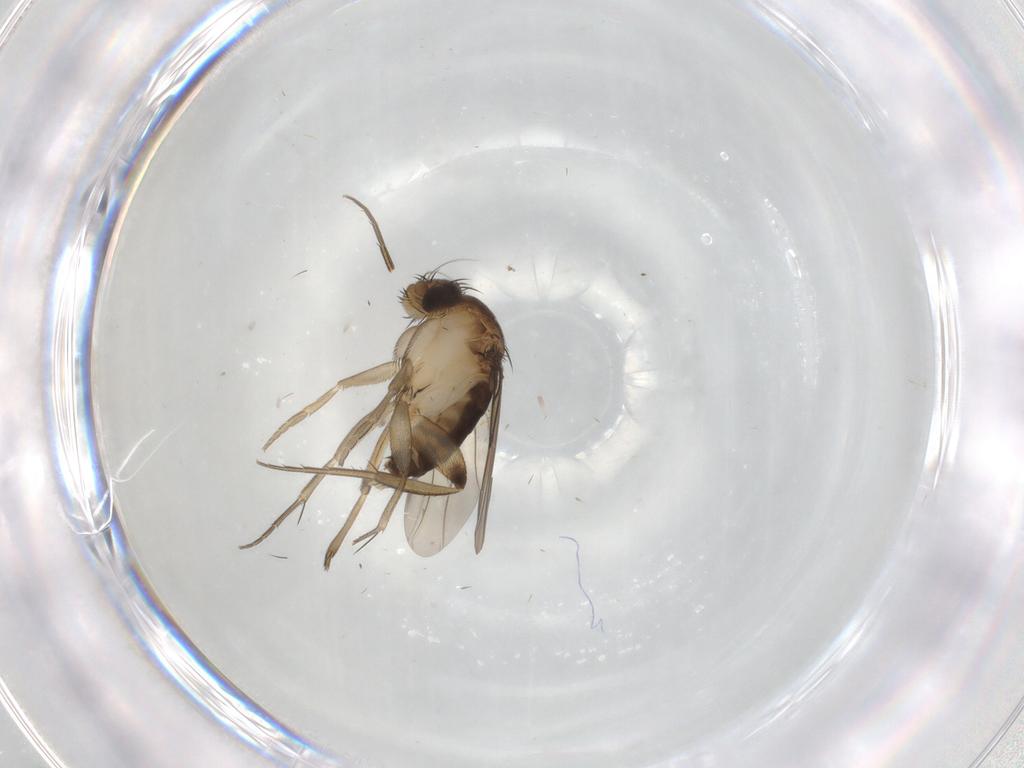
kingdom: Animalia
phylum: Arthropoda
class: Insecta
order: Diptera
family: Phoridae
